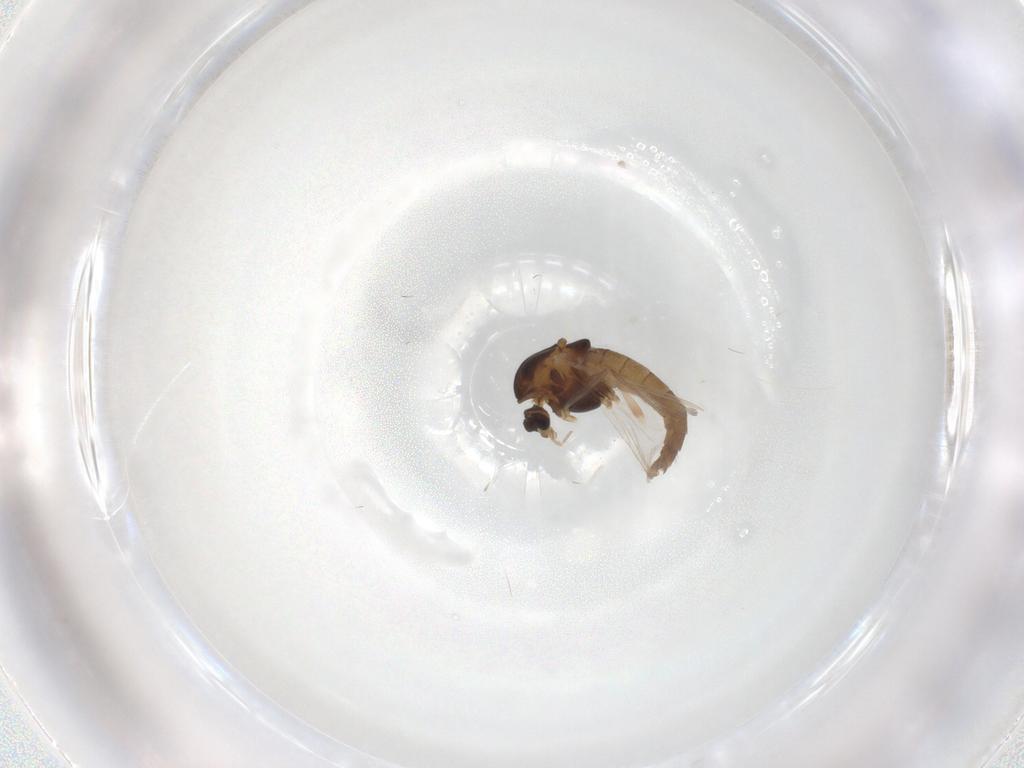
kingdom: Animalia
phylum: Arthropoda
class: Insecta
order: Diptera
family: Chironomidae
